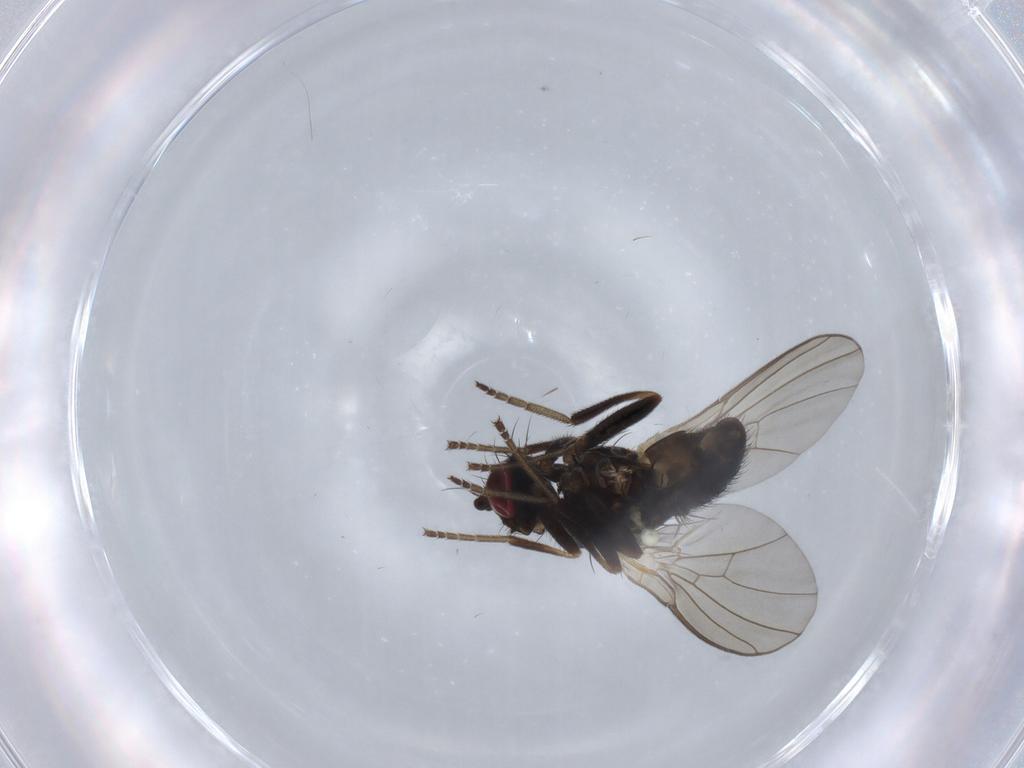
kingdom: Animalia
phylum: Arthropoda
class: Insecta
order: Diptera
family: Agromyzidae
